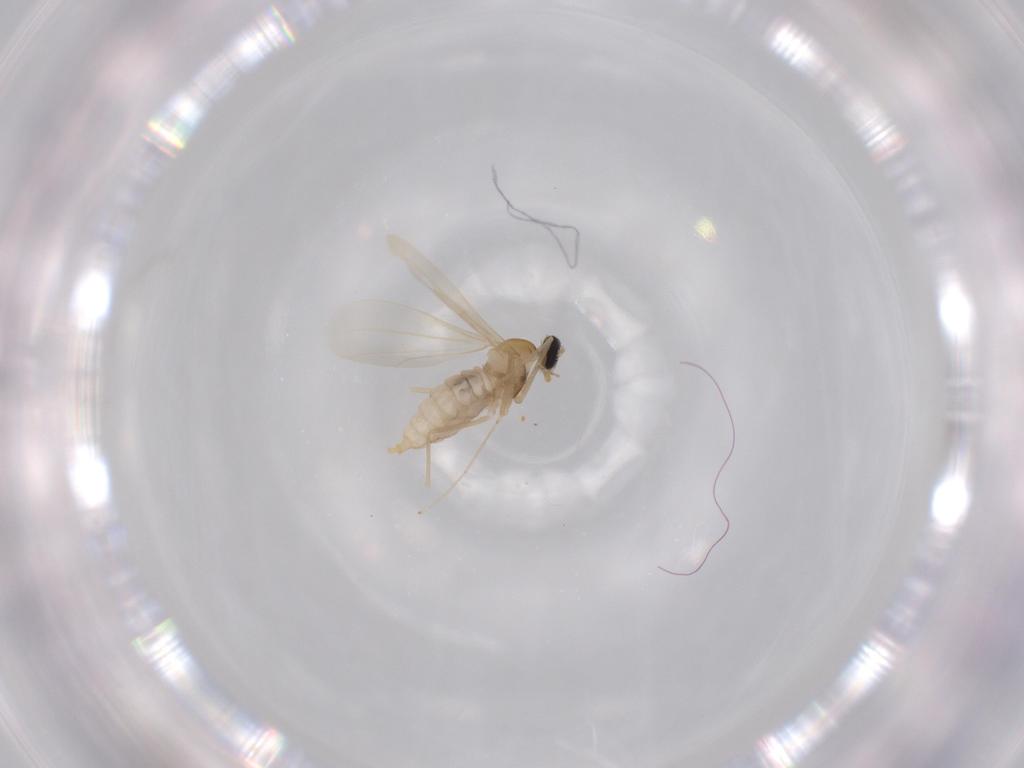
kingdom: Animalia
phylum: Arthropoda
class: Insecta
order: Diptera
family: Cecidomyiidae
